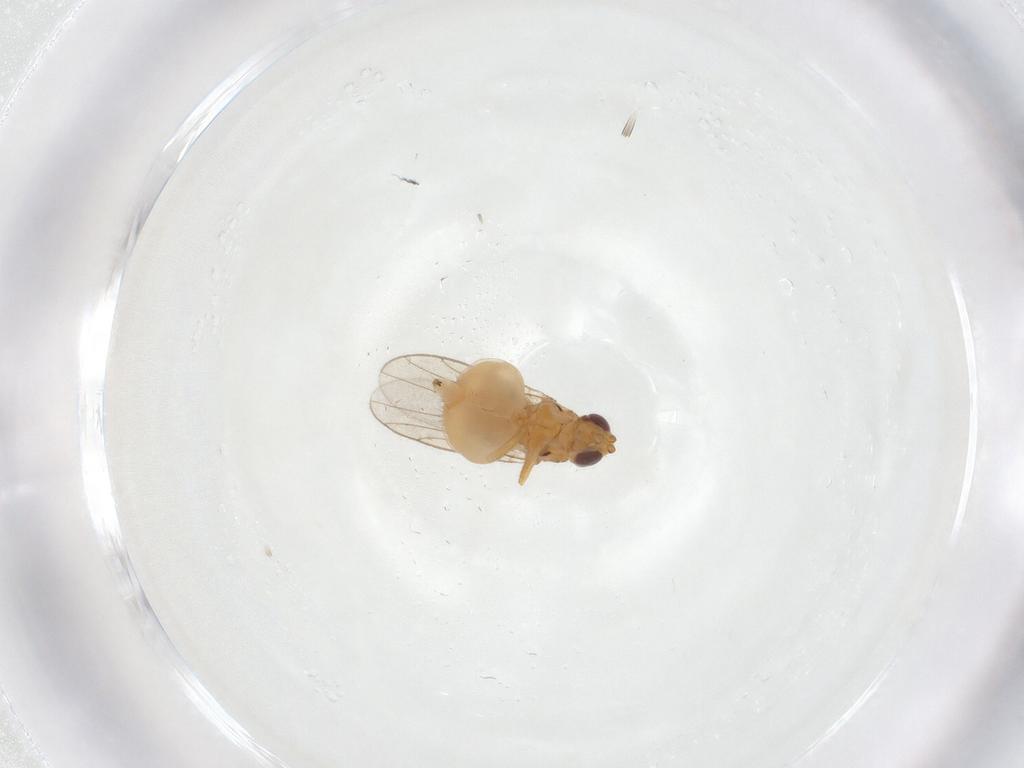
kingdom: Animalia
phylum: Arthropoda
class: Insecta
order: Diptera
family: Chloropidae
